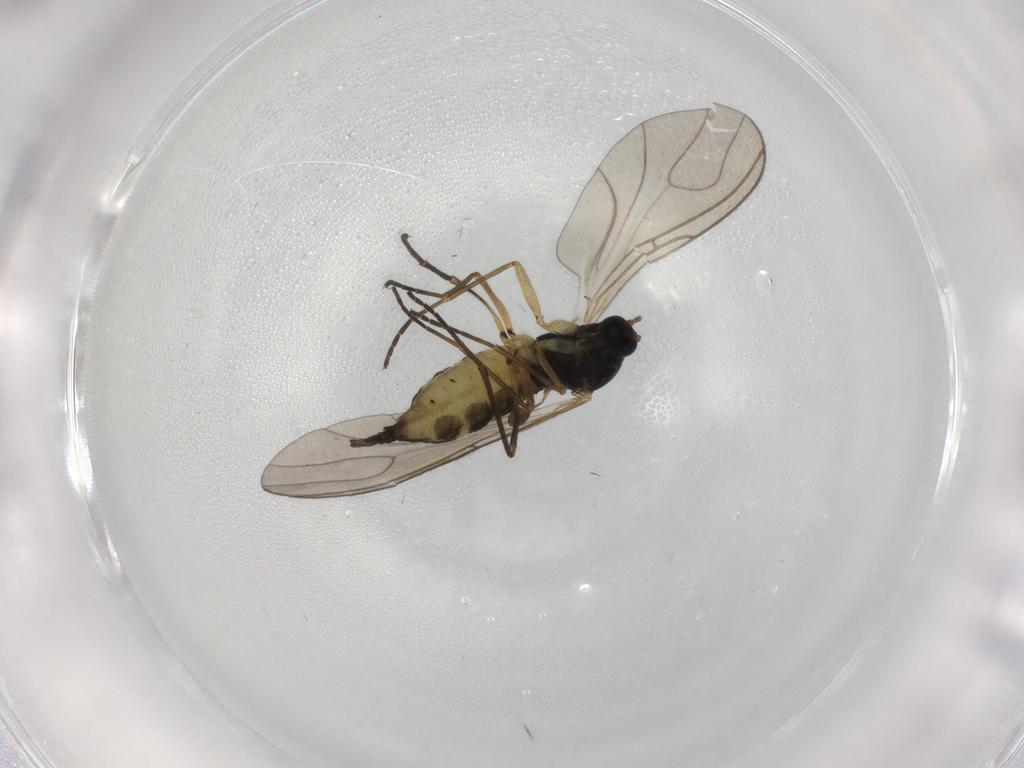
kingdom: Animalia
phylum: Arthropoda
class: Insecta
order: Diptera
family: Sciaridae
